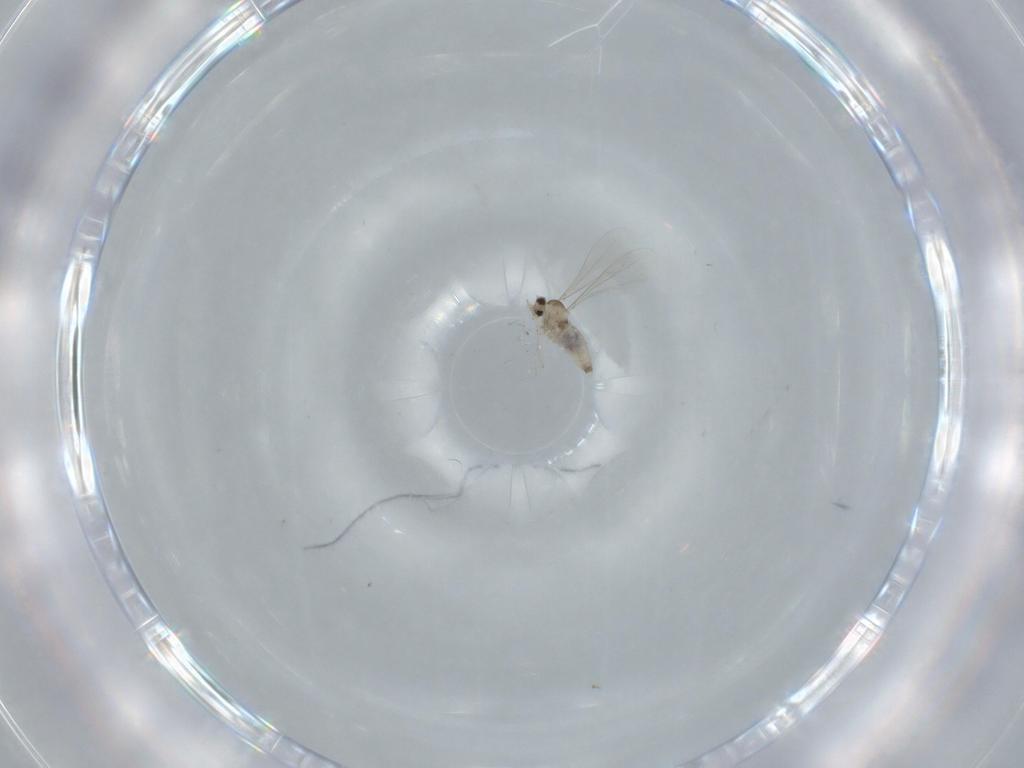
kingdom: Animalia
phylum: Arthropoda
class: Insecta
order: Diptera
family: Cecidomyiidae
